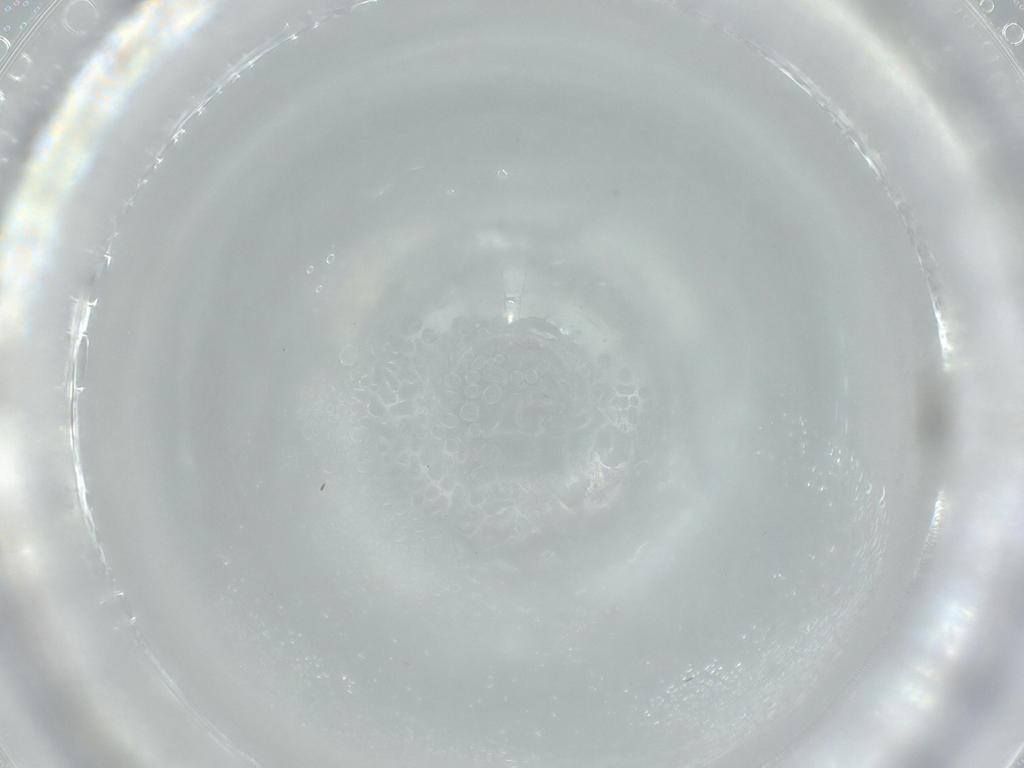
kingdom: Animalia
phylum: Arthropoda
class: Insecta
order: Diptera
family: Cecidomyiidae
